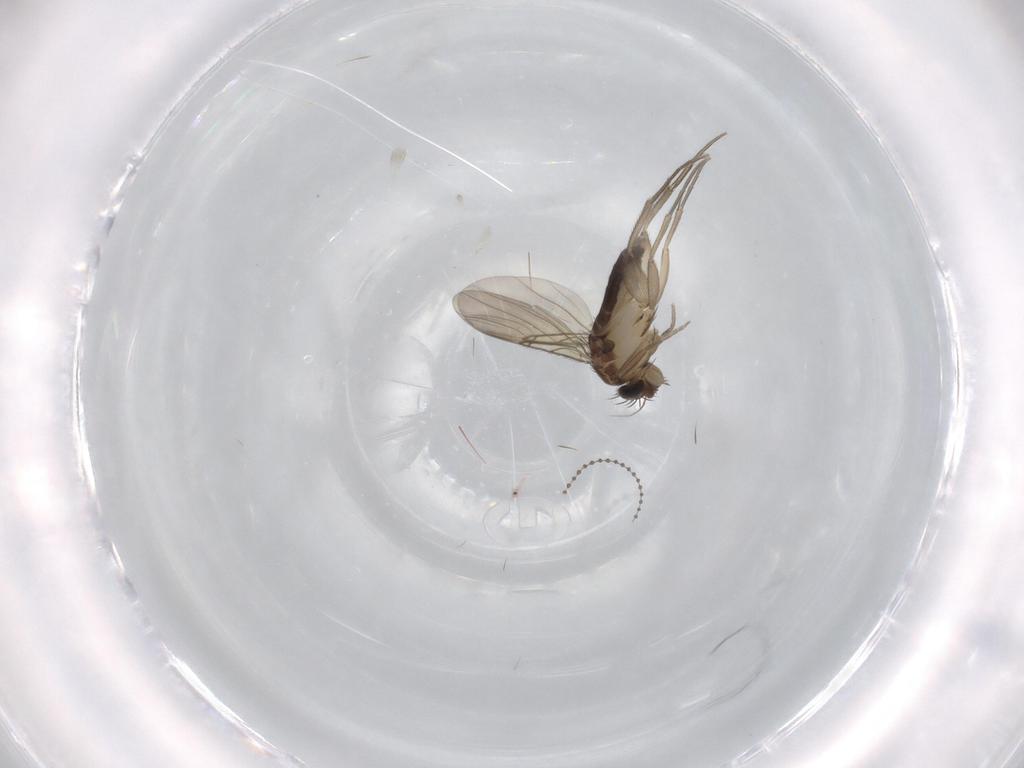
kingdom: Animalia
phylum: Arthropoda
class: Insecta
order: Diptera
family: Phoridae
